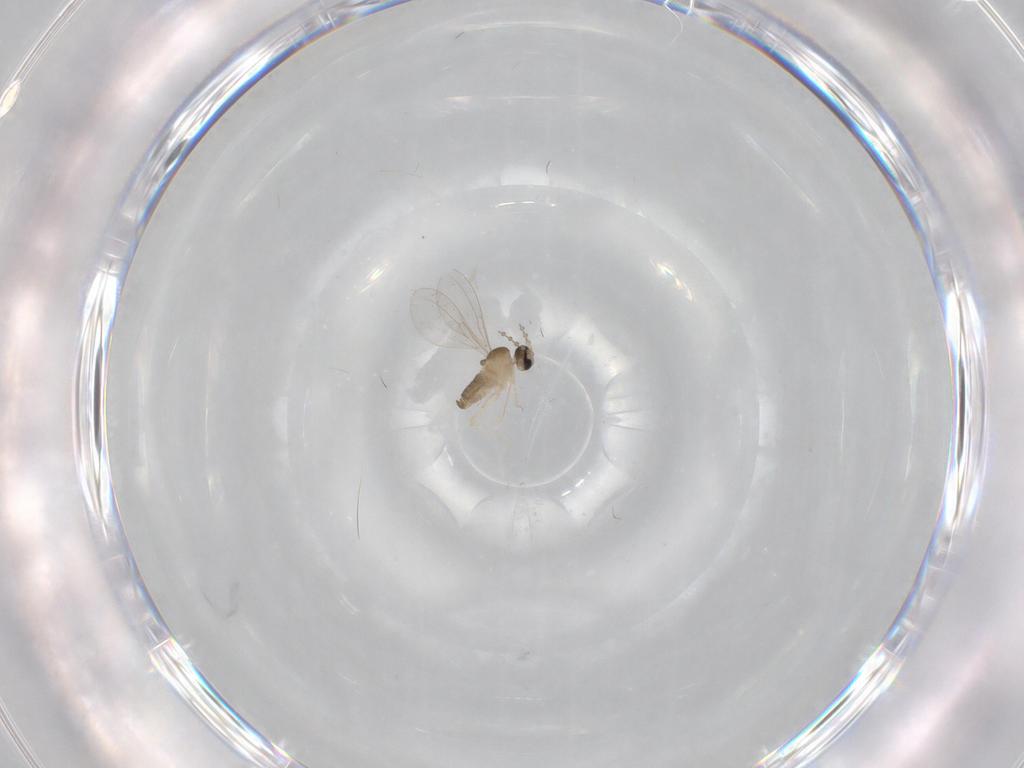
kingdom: Animalia
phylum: Arthropoda
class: Insecta
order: Diptera
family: Cecidomyiidae
